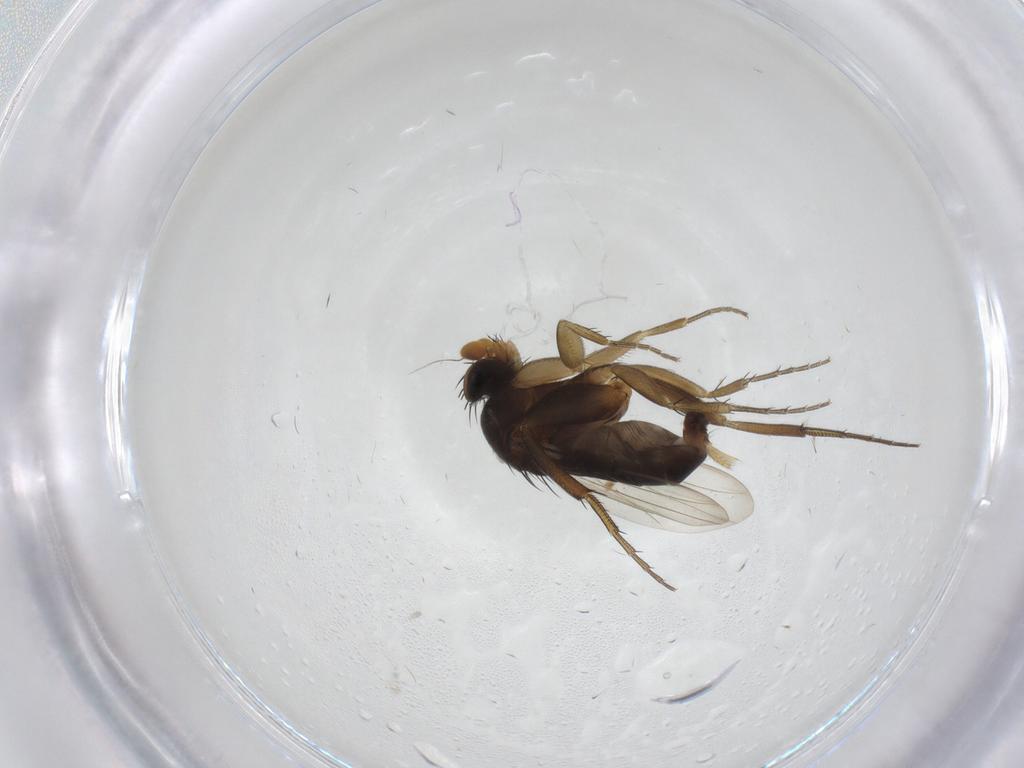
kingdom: Animalia
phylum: Arthropoda
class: Insecta
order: Diptera
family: Phoridae
